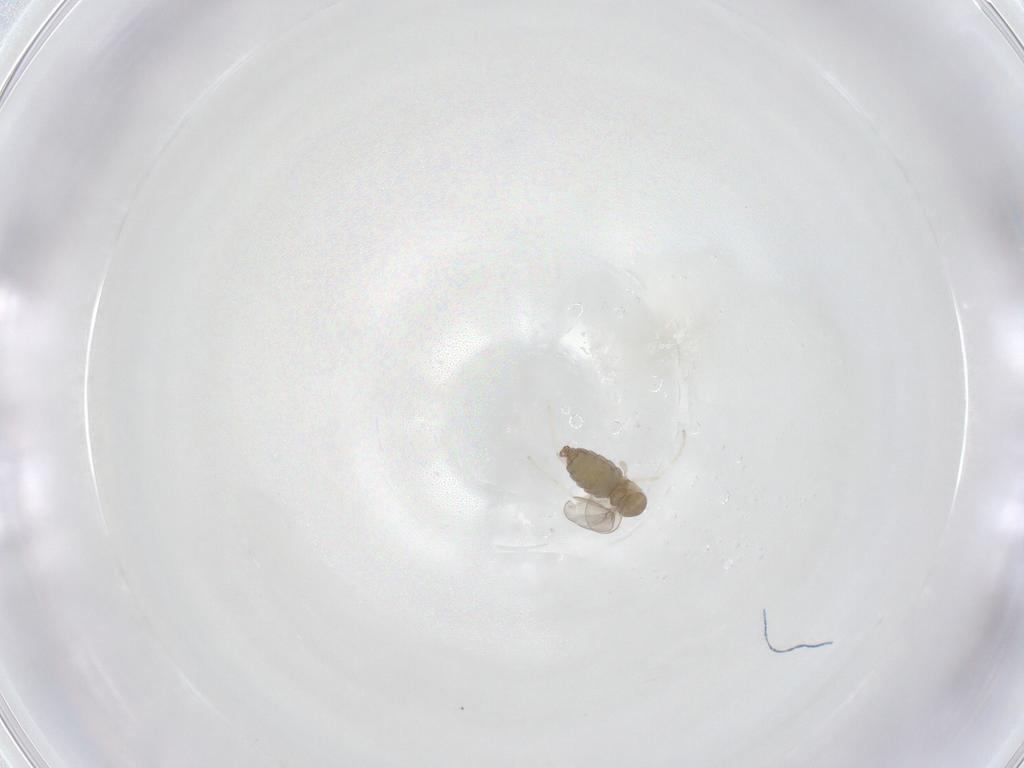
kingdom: Animalia
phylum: Arthropoda
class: Insecta
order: Diptera
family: Cecidomyiidae
